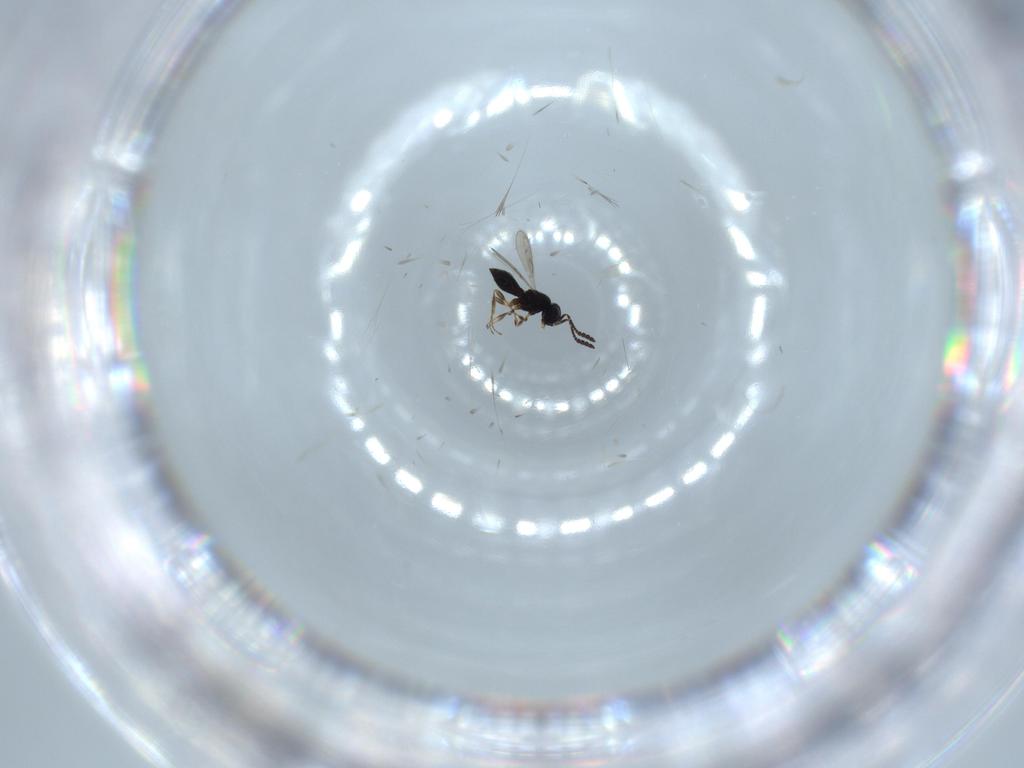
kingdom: Animalia
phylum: Arthropoda
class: Insecta
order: Hymenoptera
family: Scelionidae
